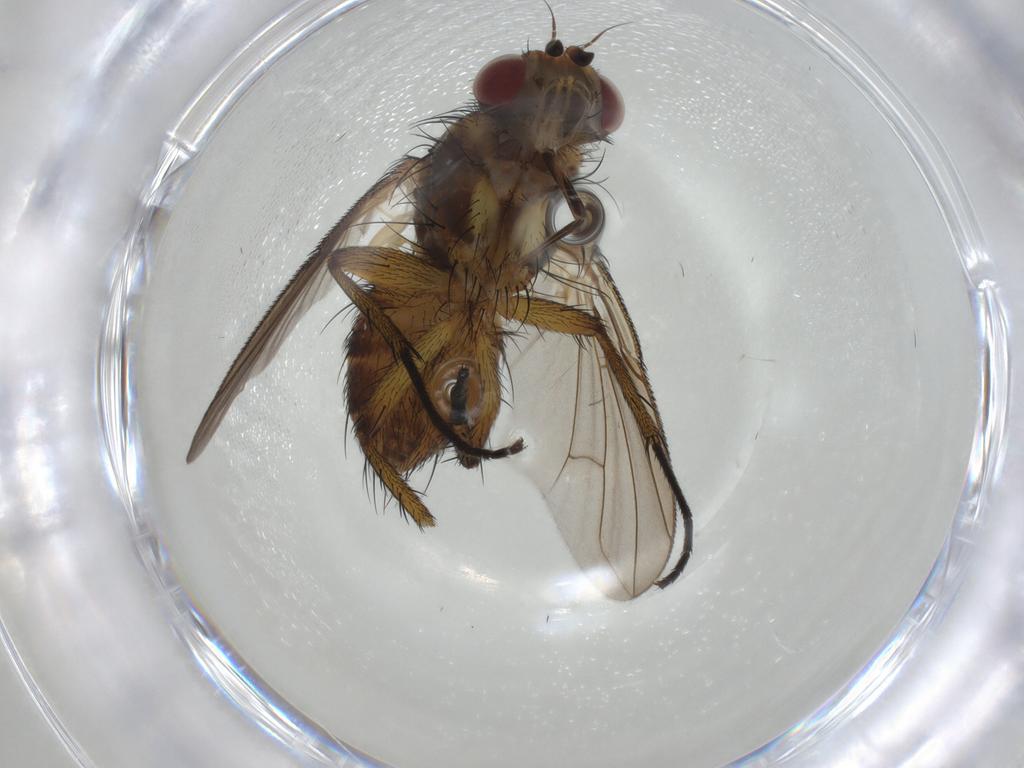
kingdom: Animalia
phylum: Arthropoda
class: Insecta
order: Diptera
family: Tachinidae
